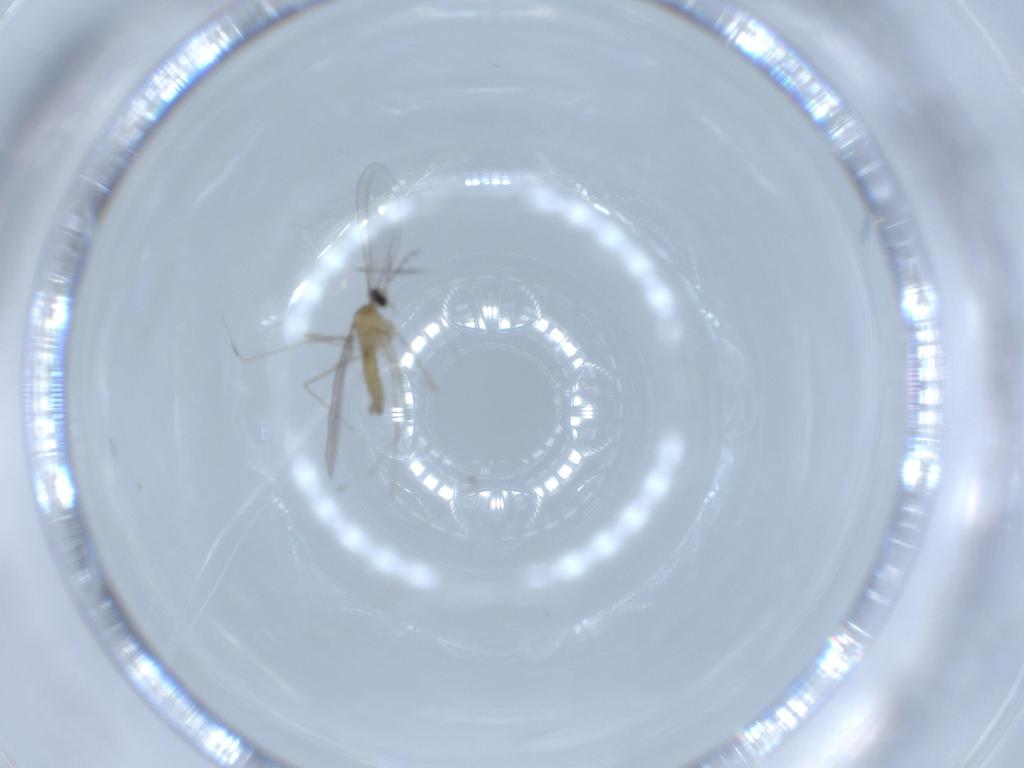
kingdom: Animalia
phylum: Arthropoda
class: Insecta
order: Diptera
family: Cecidomyiidae
